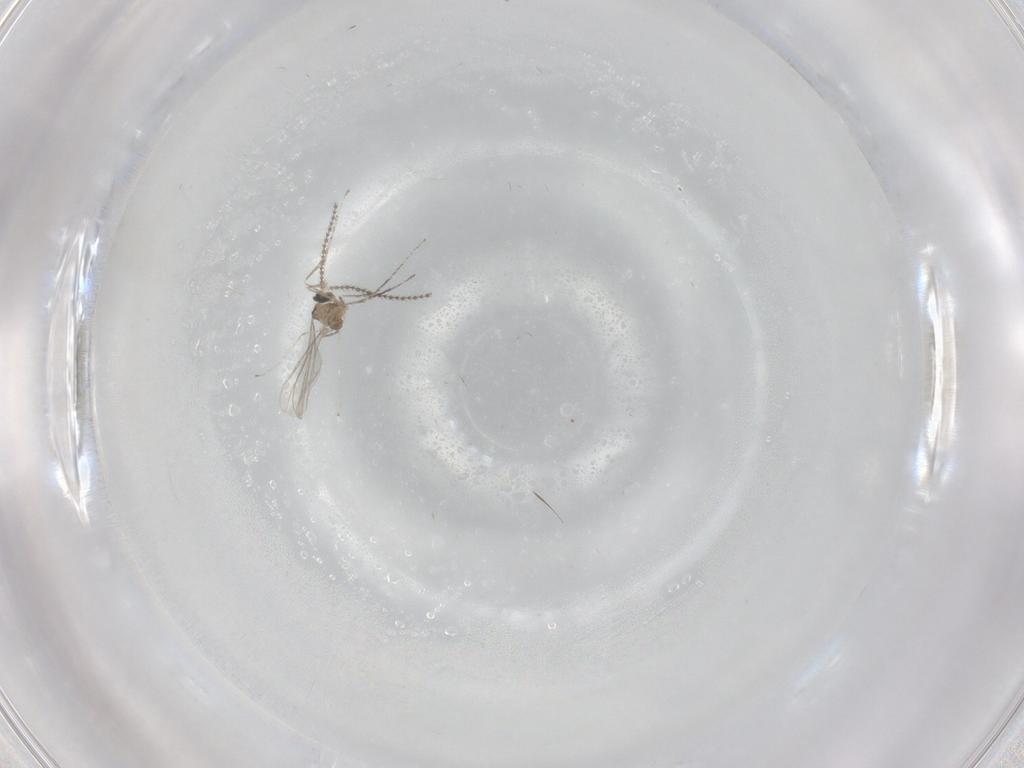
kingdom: Animalia
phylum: Arthropoda
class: Insecta
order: Diptera
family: Cecidomyiidae
